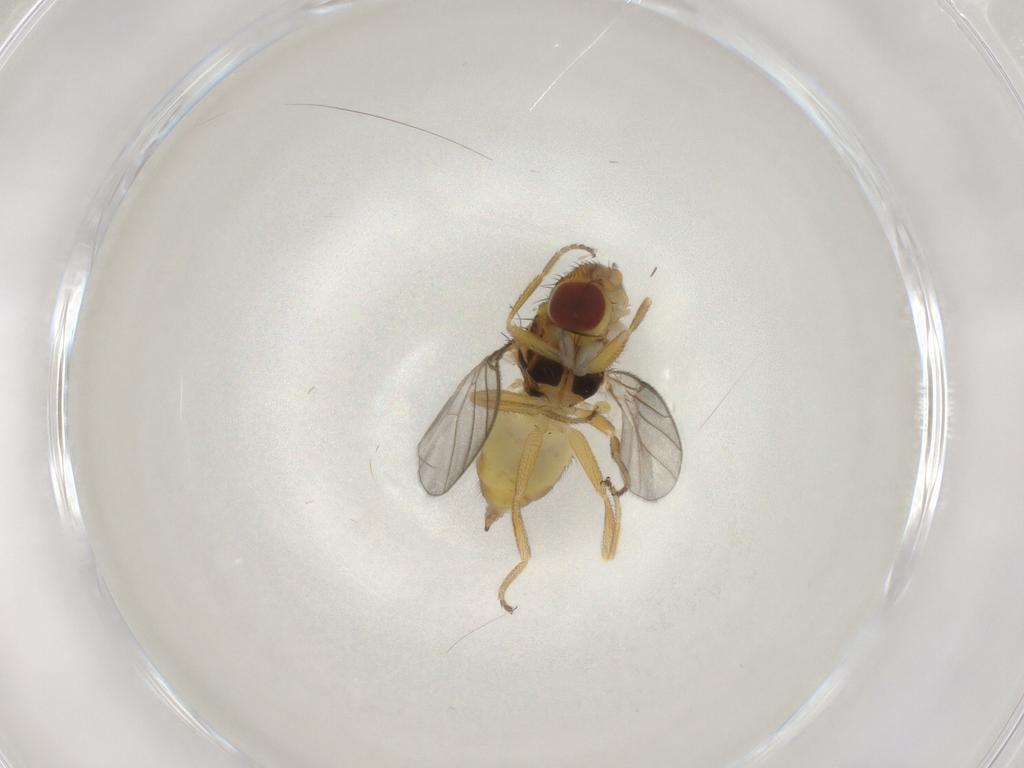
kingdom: Animalia
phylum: Arthropoda
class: Insecta
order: Diptera
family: Chloropidae
